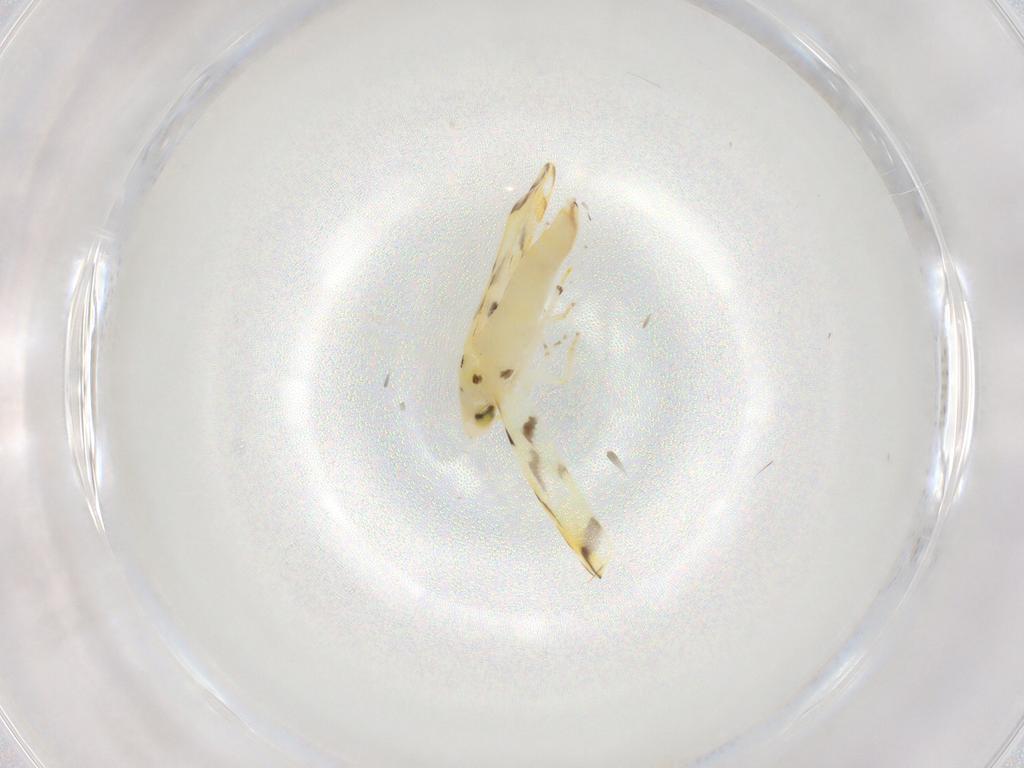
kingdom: Animalia
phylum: Arthropoda
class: Insecta
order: Hemiptera
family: Cicadellidae
